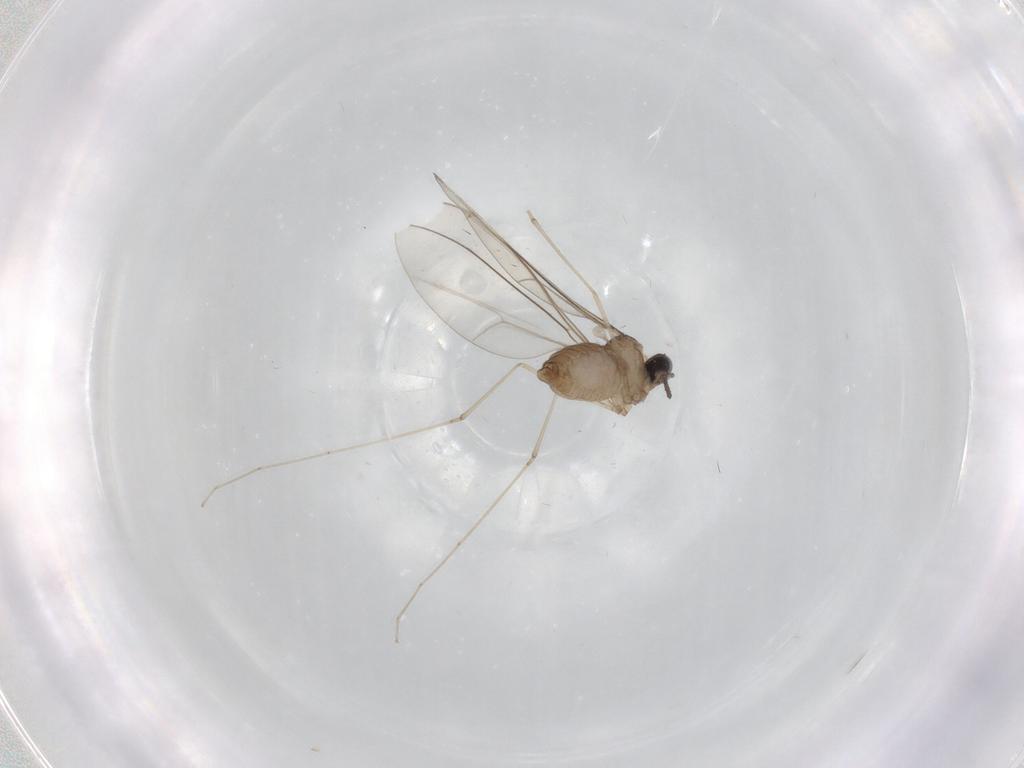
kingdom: Animalia
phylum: Arthropoda
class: Insecta
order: Diptera
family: Cecidomyiidae
